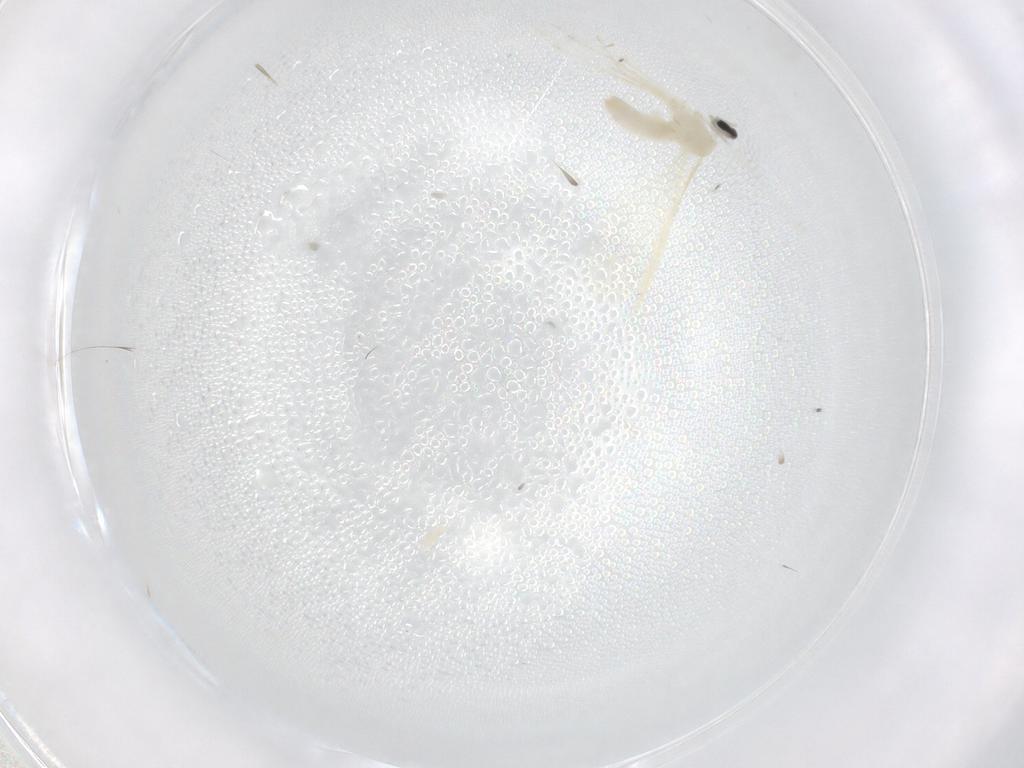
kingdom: Animalia
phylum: Arthropoda
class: Insecta
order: Diptera
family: Cecidomyiidae
